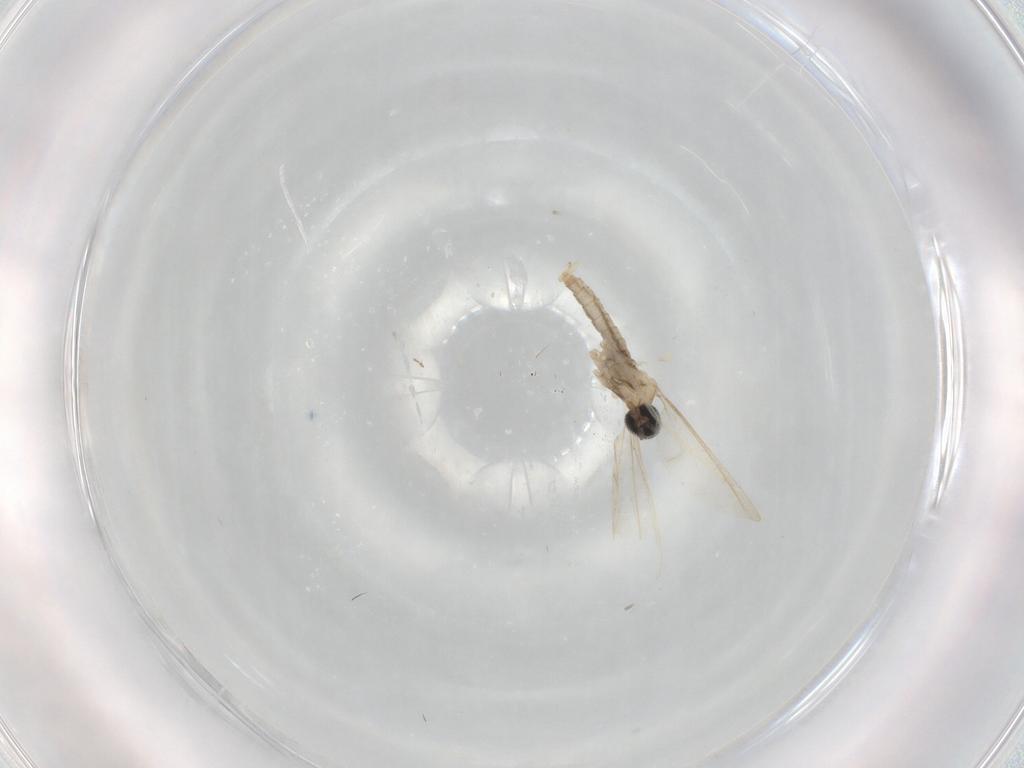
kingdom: Animalia
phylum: Arthropoda
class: Insecta
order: Diptera
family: Cecidomyiidae
